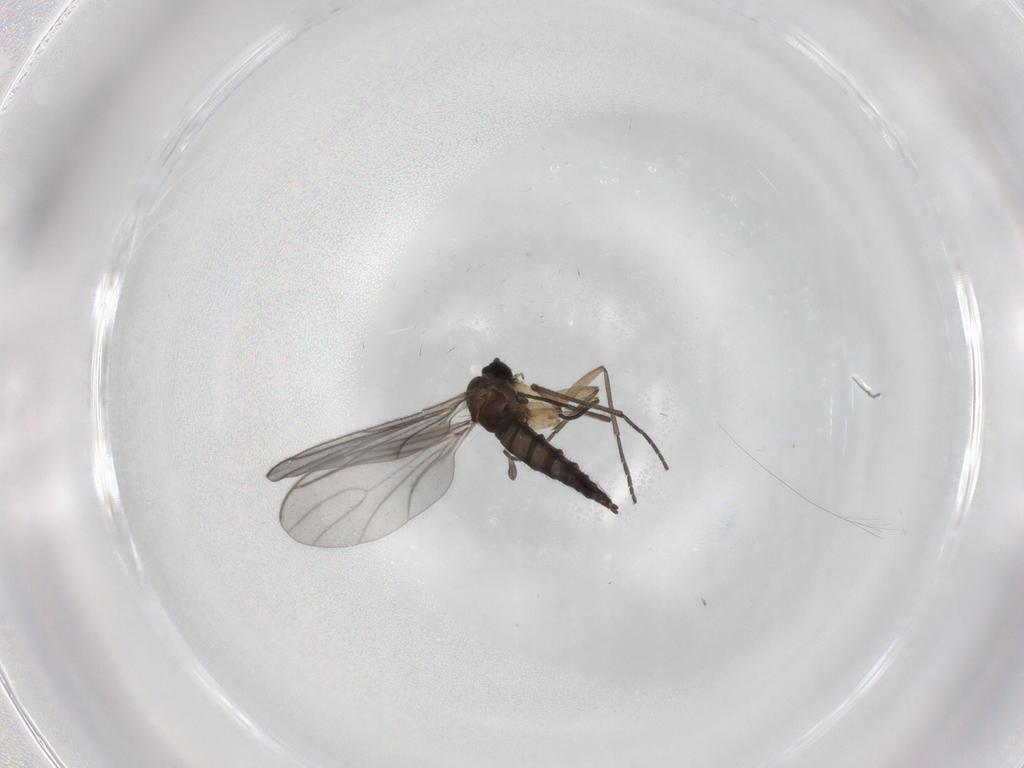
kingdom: Animalia
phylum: Arthropoda
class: Insecta
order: Diptera
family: Sciaridae
